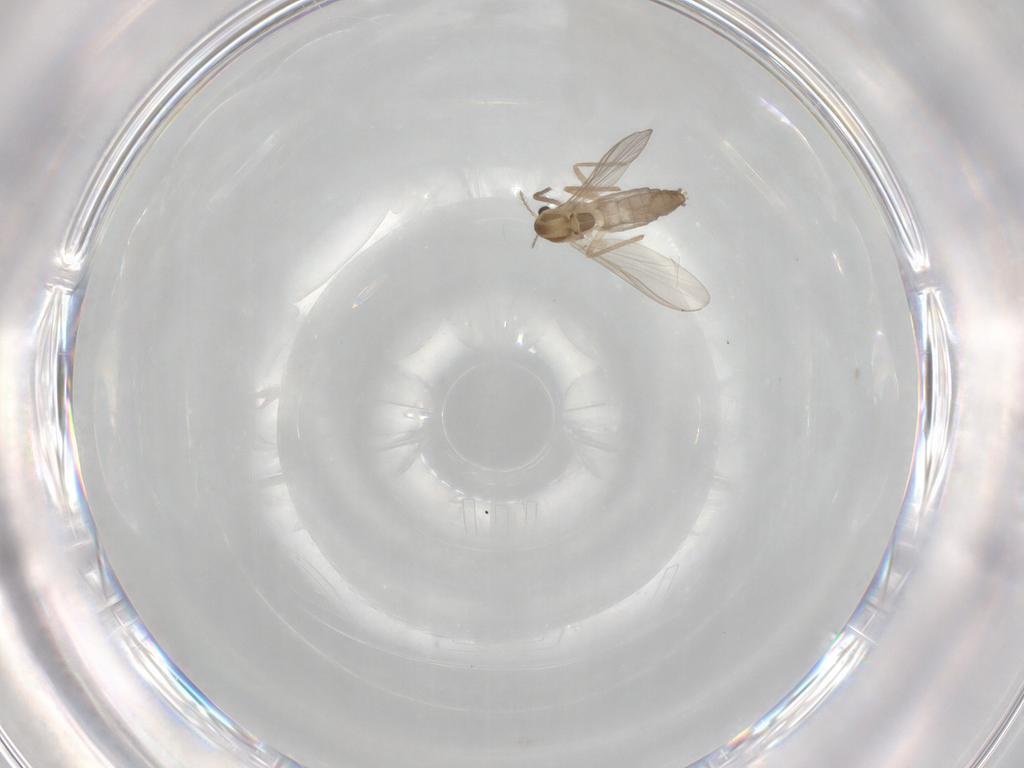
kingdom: Animalia
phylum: Arthropoda
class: Insecta
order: Diptera
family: Chironomidae
